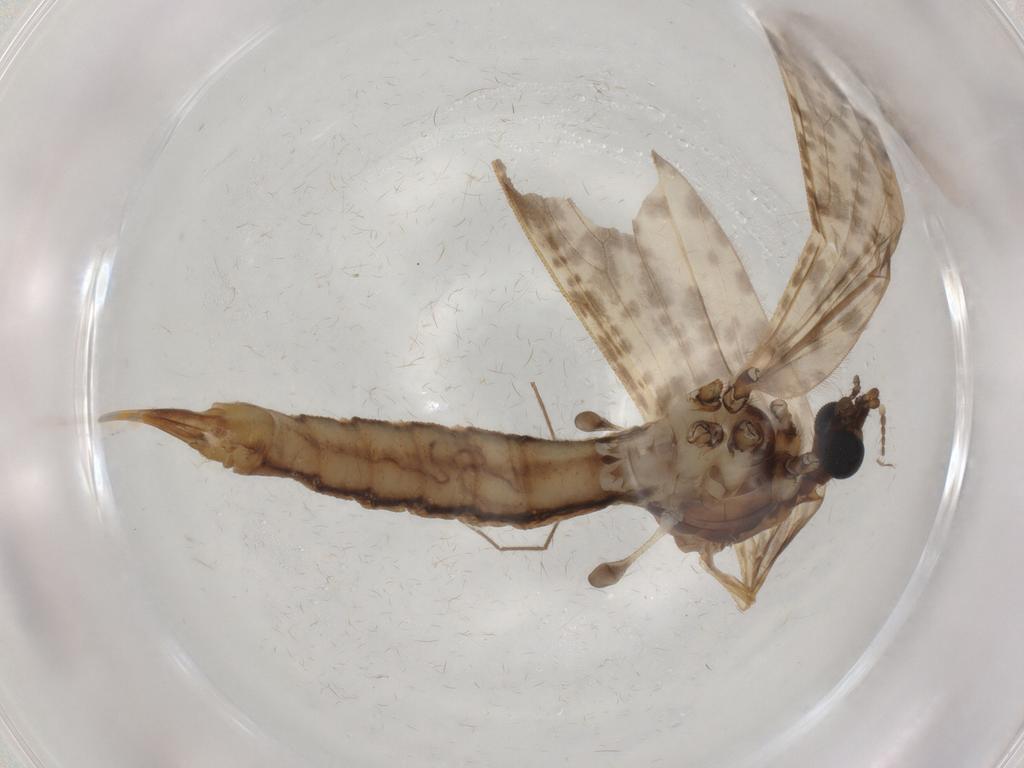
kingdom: Animalia
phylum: Arthropoda
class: Insecta
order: Diptera
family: Muscidae
